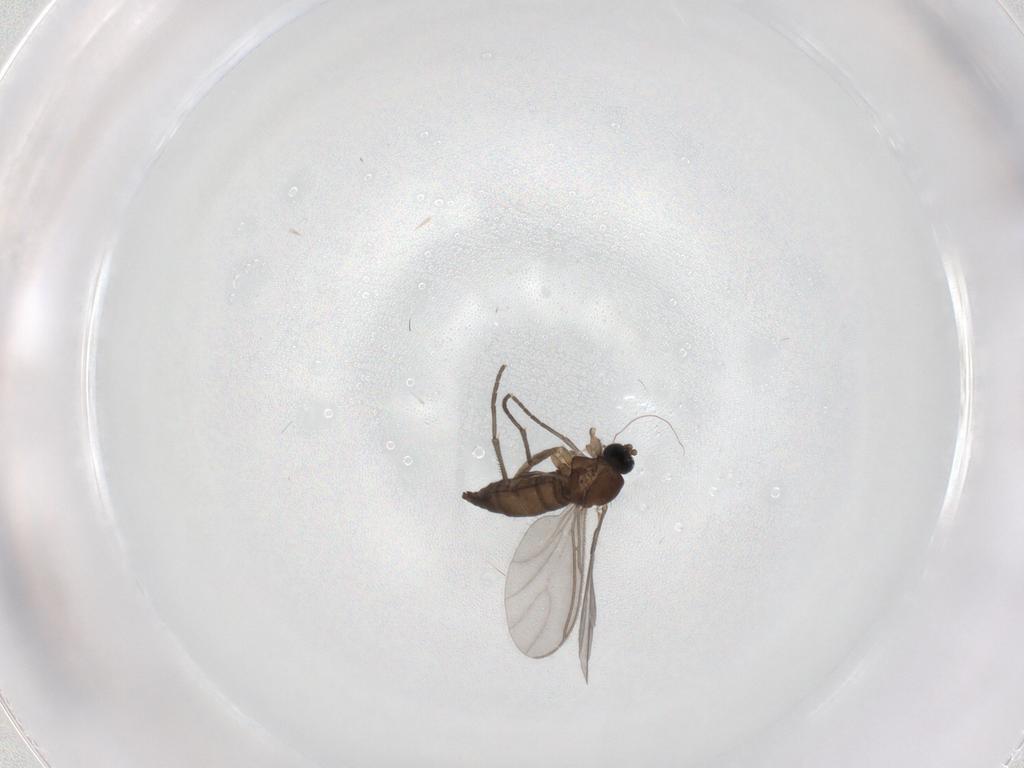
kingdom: Animalia
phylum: Arthropoda
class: Insecta
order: Diptera
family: Sciaridae
